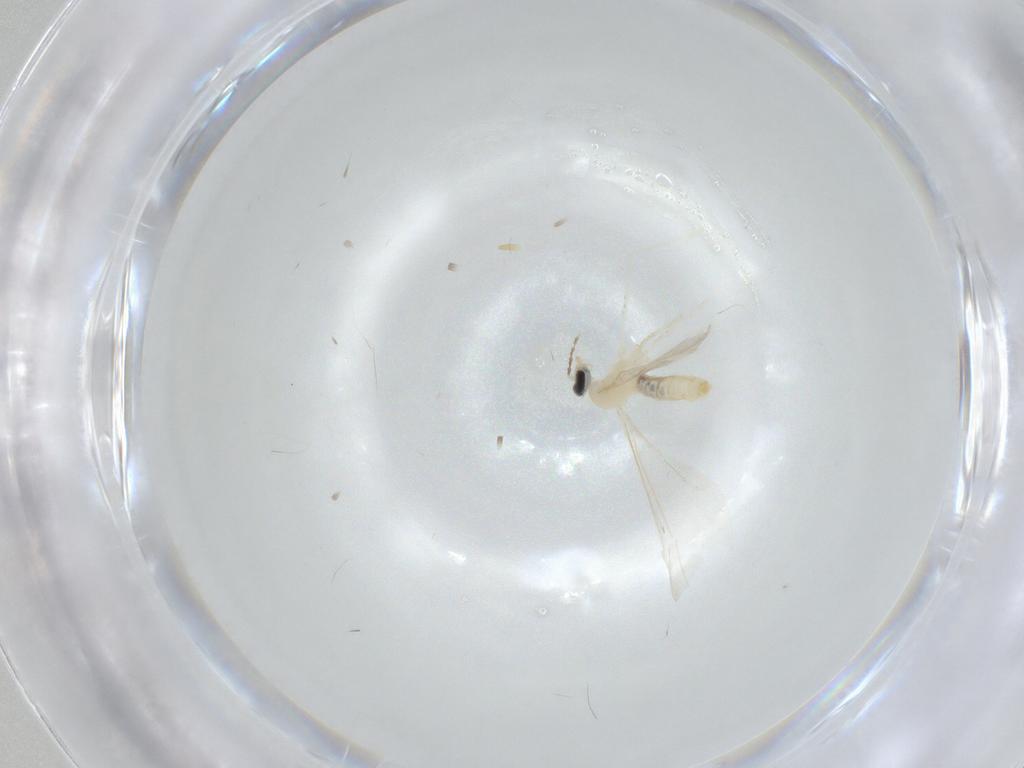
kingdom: Animalia
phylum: Arthropoda
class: Insecta
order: Diptera
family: Cecidomyiidae
